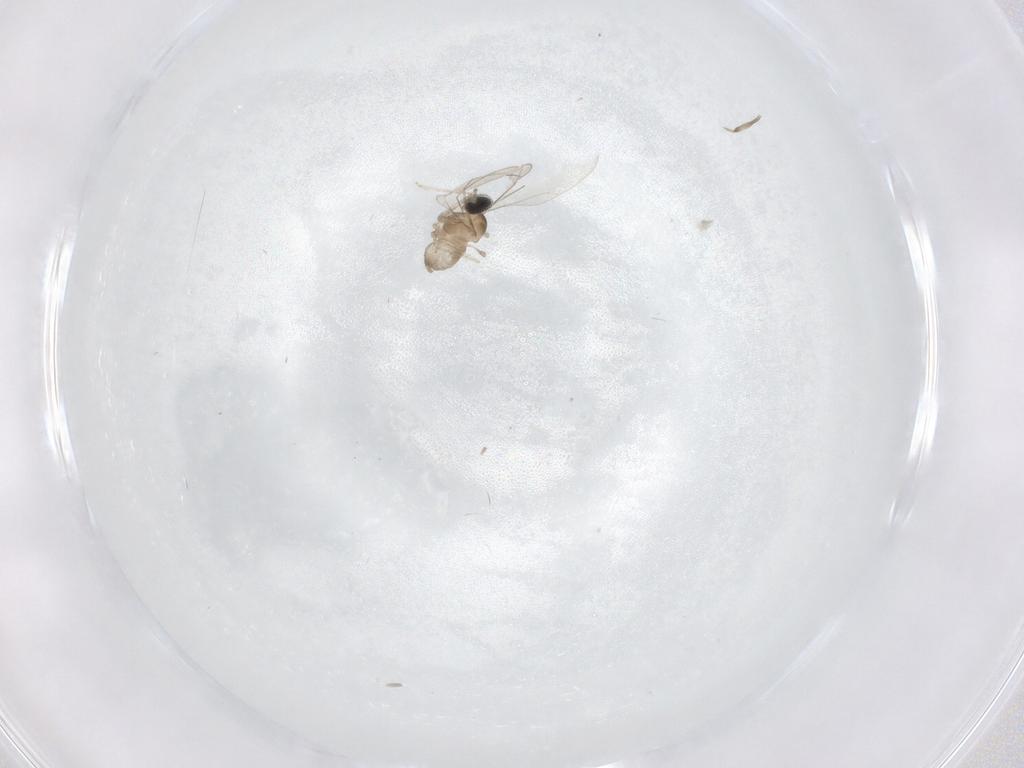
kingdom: Animalia
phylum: Arthropoda
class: Insecta
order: Diptera
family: Cecidomyiidae
